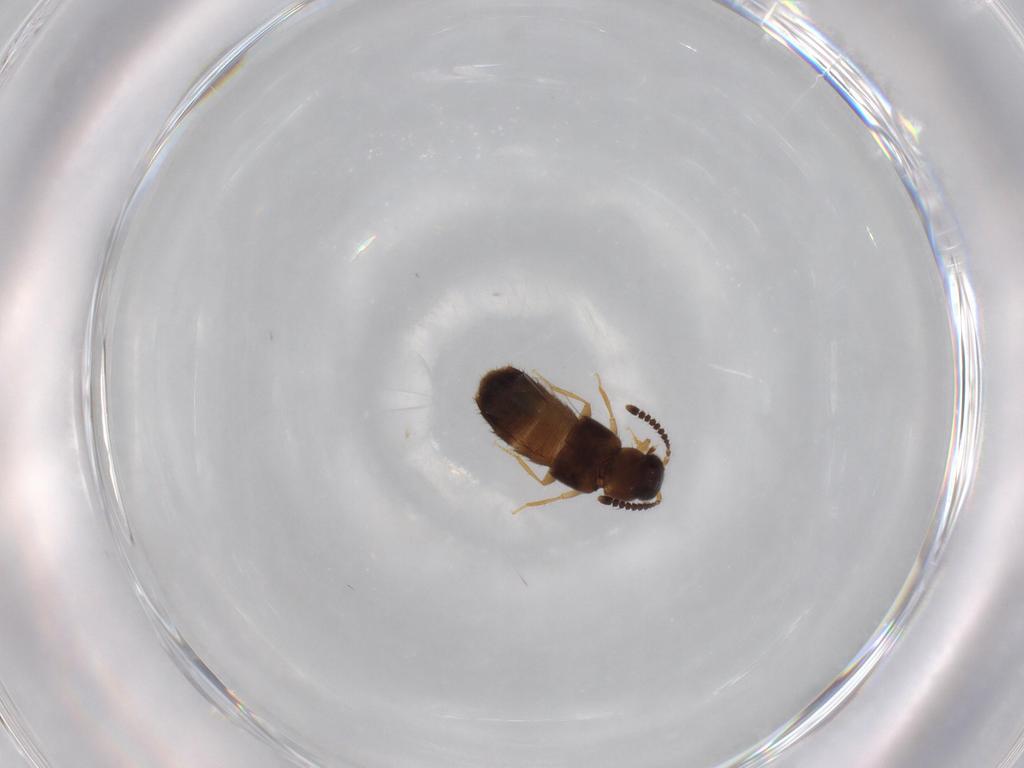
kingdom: Animalia
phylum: Arthropoda
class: Insecta
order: Coleoptera
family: Staphylinidae
